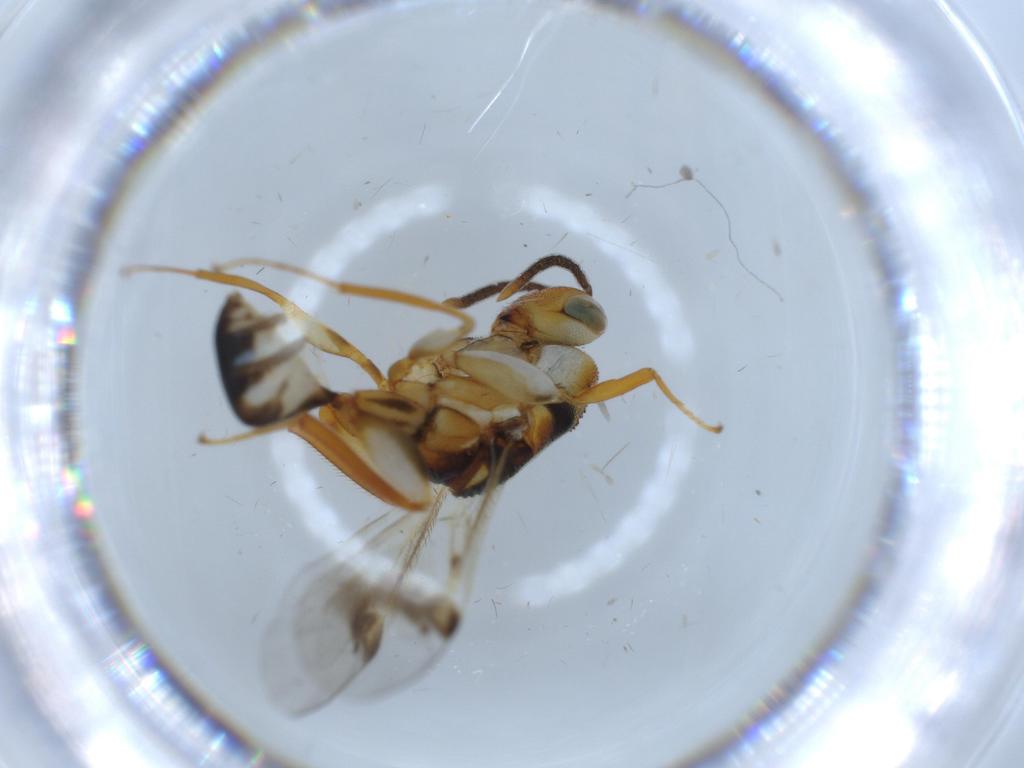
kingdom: Animalia
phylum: Arthropoda
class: Insecta
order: Hymenoptera
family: Bethylidae
